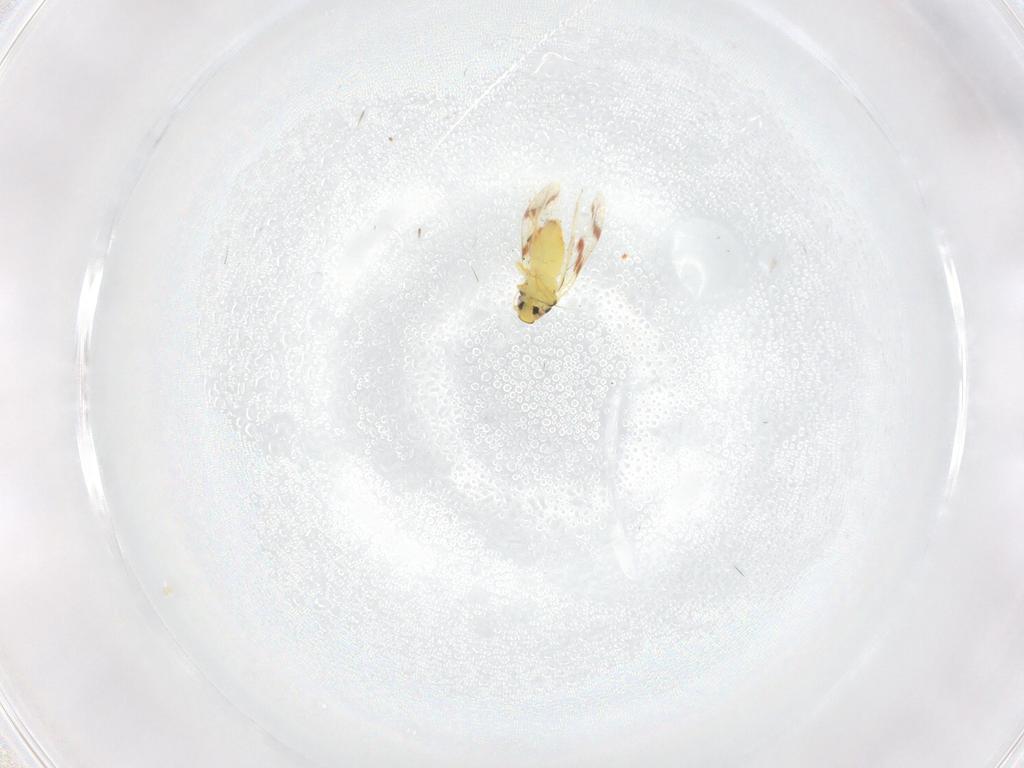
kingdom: Animalia
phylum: Arthropoda
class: Insecta
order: Hemiptera
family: Aleyrodidae
